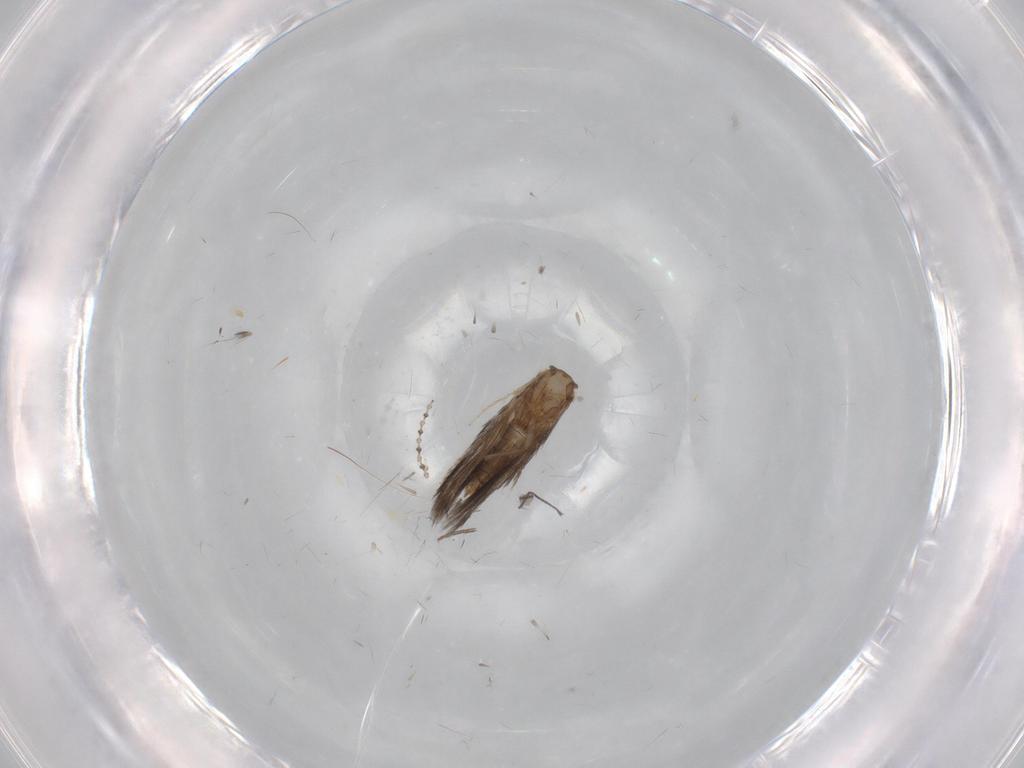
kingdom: Animalia
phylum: Arthropoda
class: Insecta
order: Trichoptera
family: Hydroptilidae
